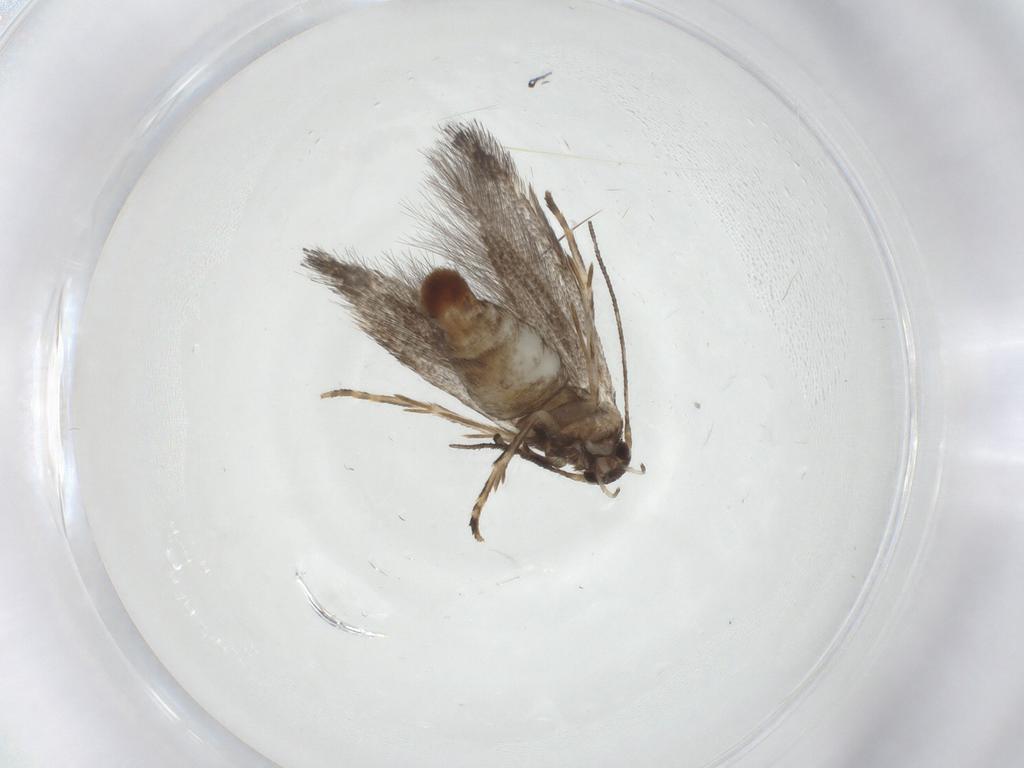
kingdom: Animalia
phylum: Arthropoda
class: Insecta
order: Lepidoptera
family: Elachistidae
